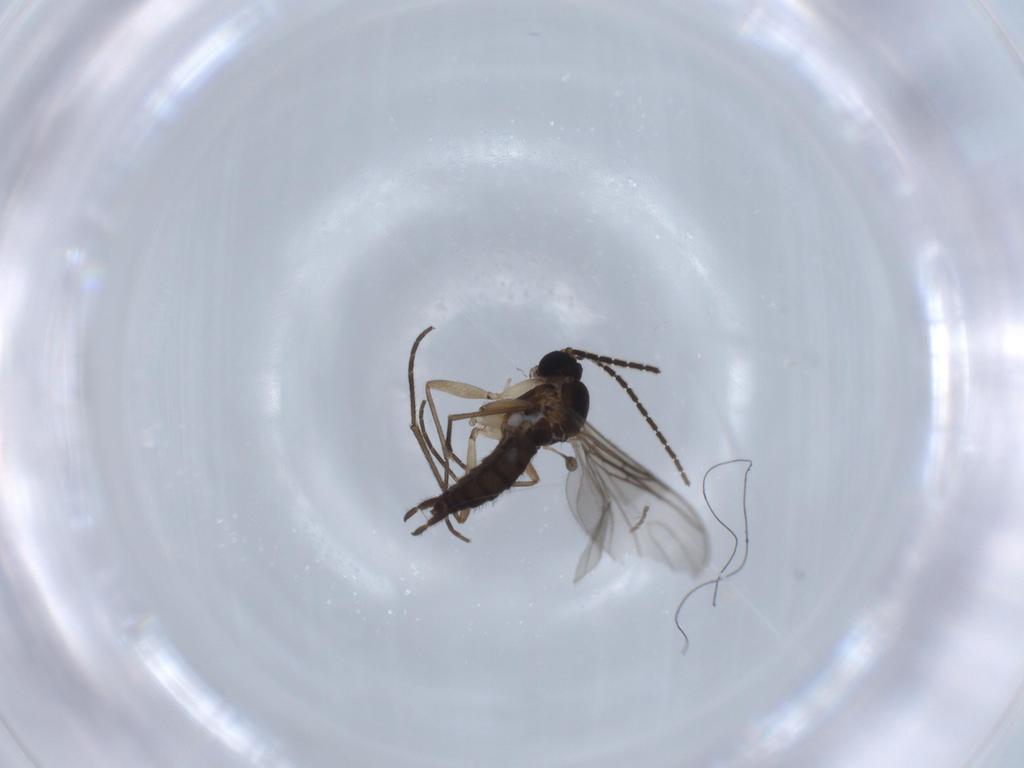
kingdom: Animalia
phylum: Arthropoda
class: Insecta
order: Diptera
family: Sciaridae
